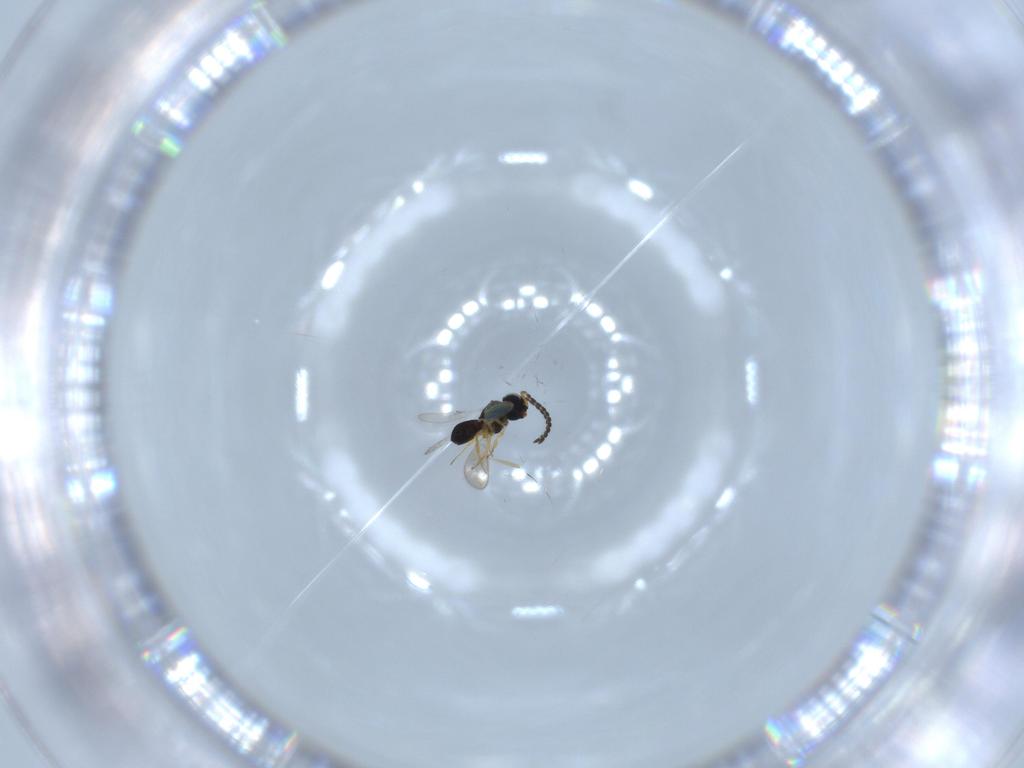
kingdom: Animalia
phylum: Arthropoda
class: Insecta
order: Hymenoptera
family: Scelionidae
